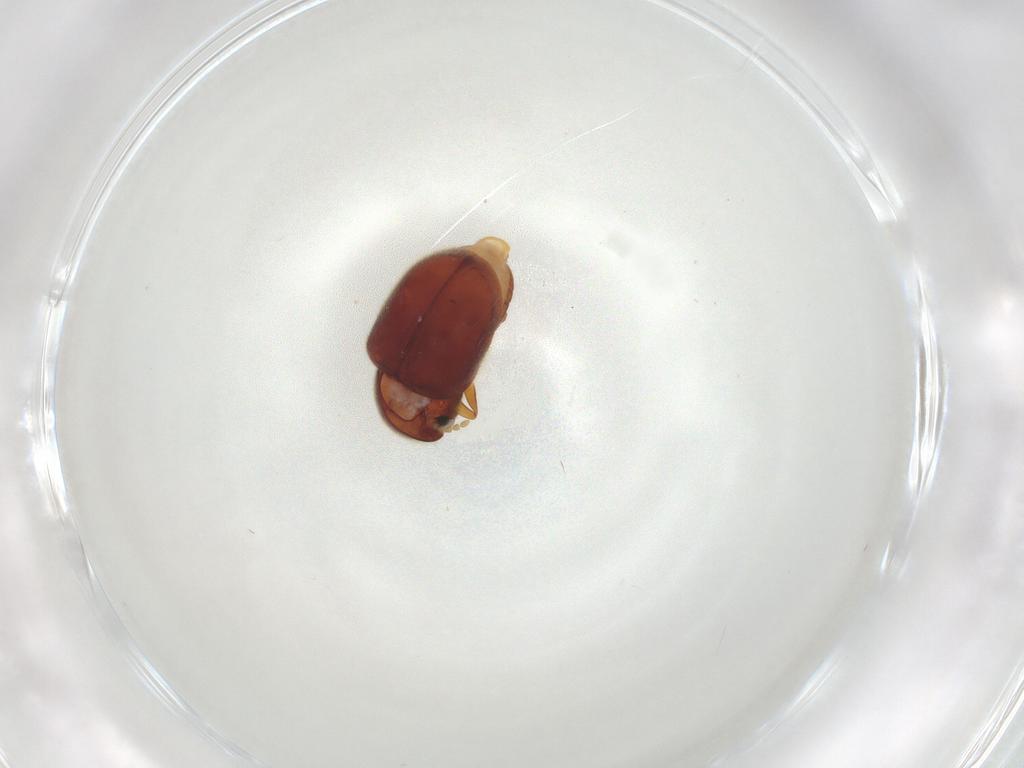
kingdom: Animalia
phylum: Arthropoda
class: Insecta
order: Coleoptera
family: Ptinidae
